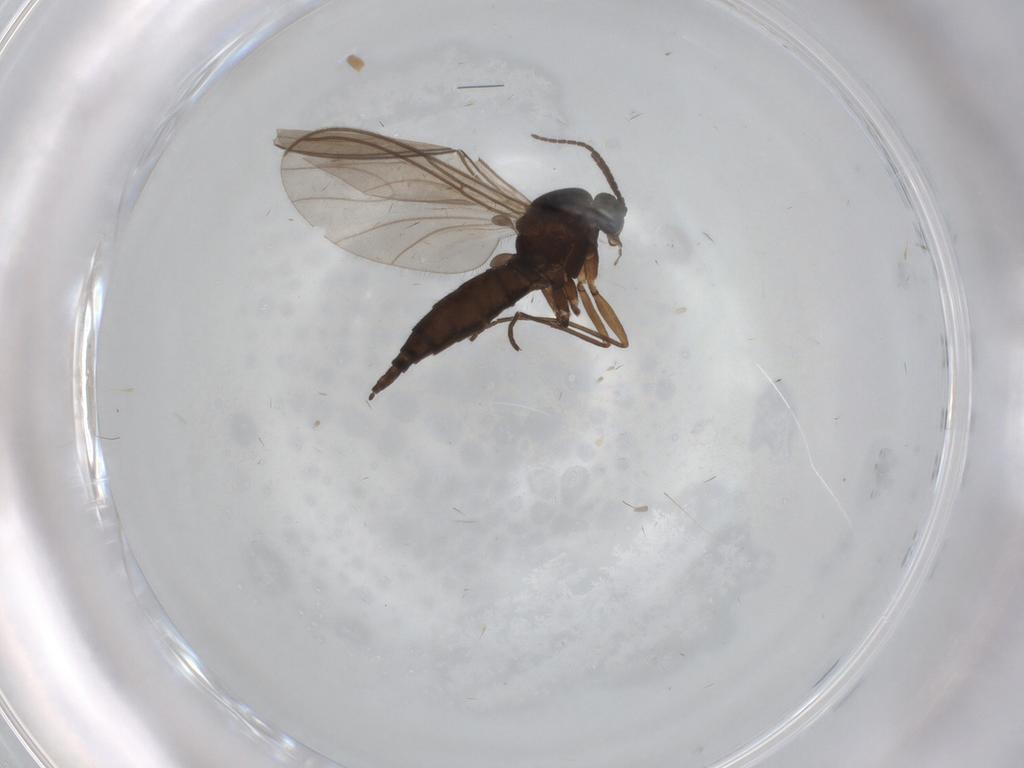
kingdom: Animalia
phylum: Arthropoda
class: Insecta
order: Diptera
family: Sciaridae
